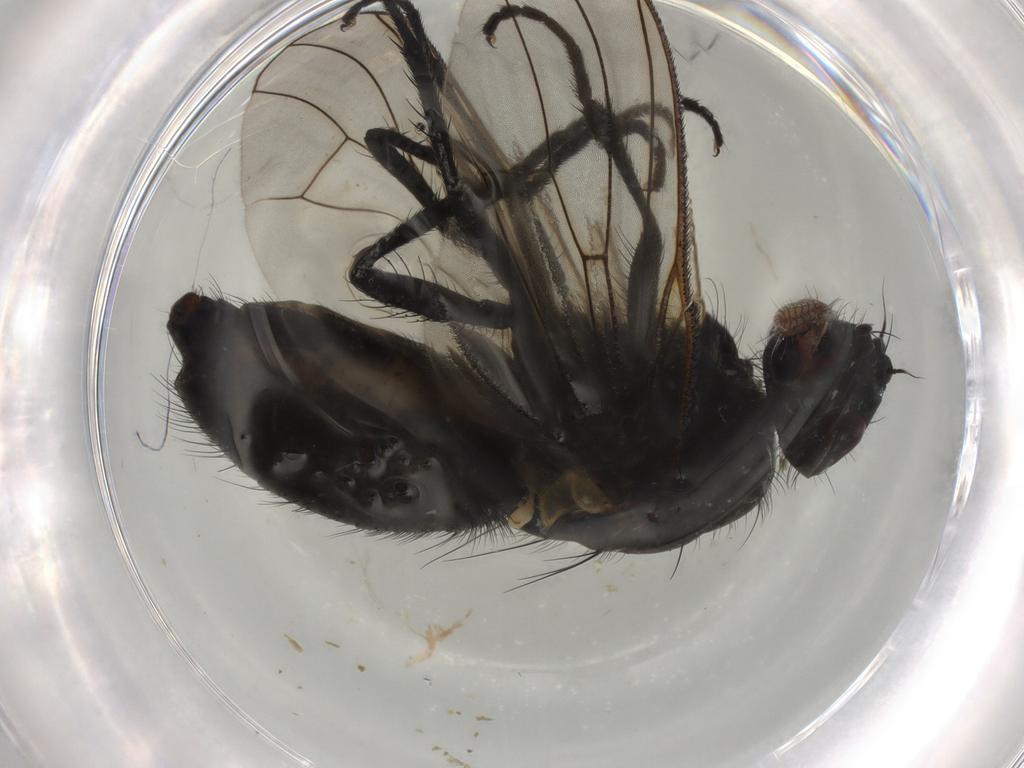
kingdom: Animalia
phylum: Arthropoda
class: Insecta
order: Diptera
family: Muscidae
